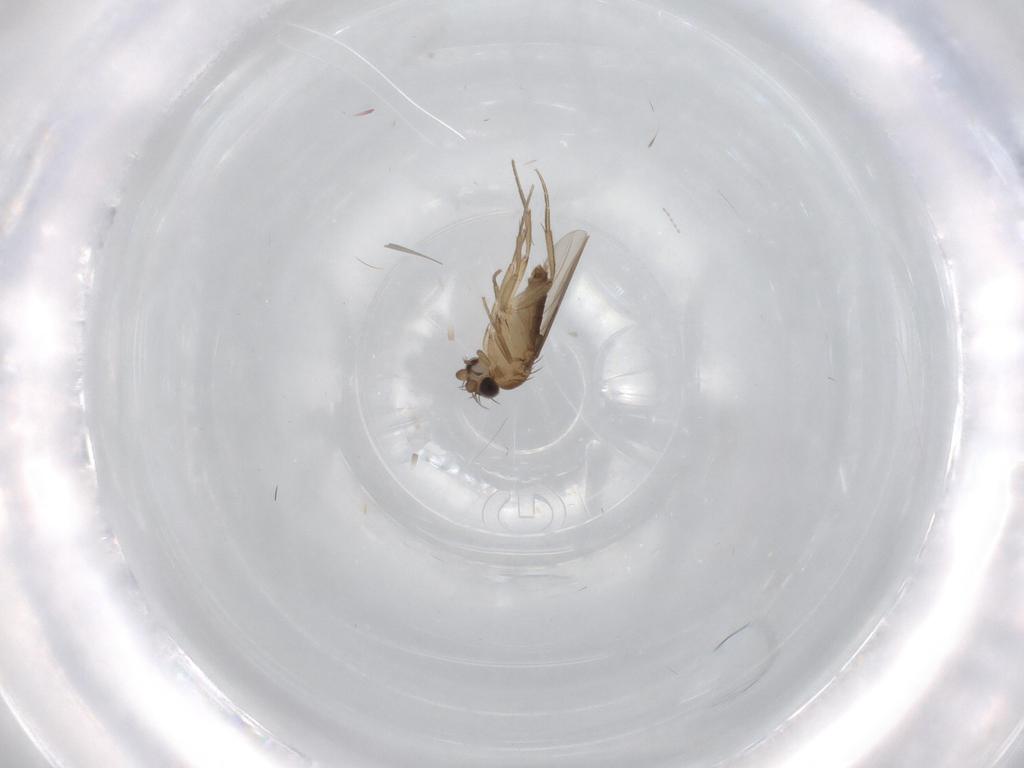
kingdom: Animalia
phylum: Arthropoda
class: Insecta
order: Diptera
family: Phoridae
